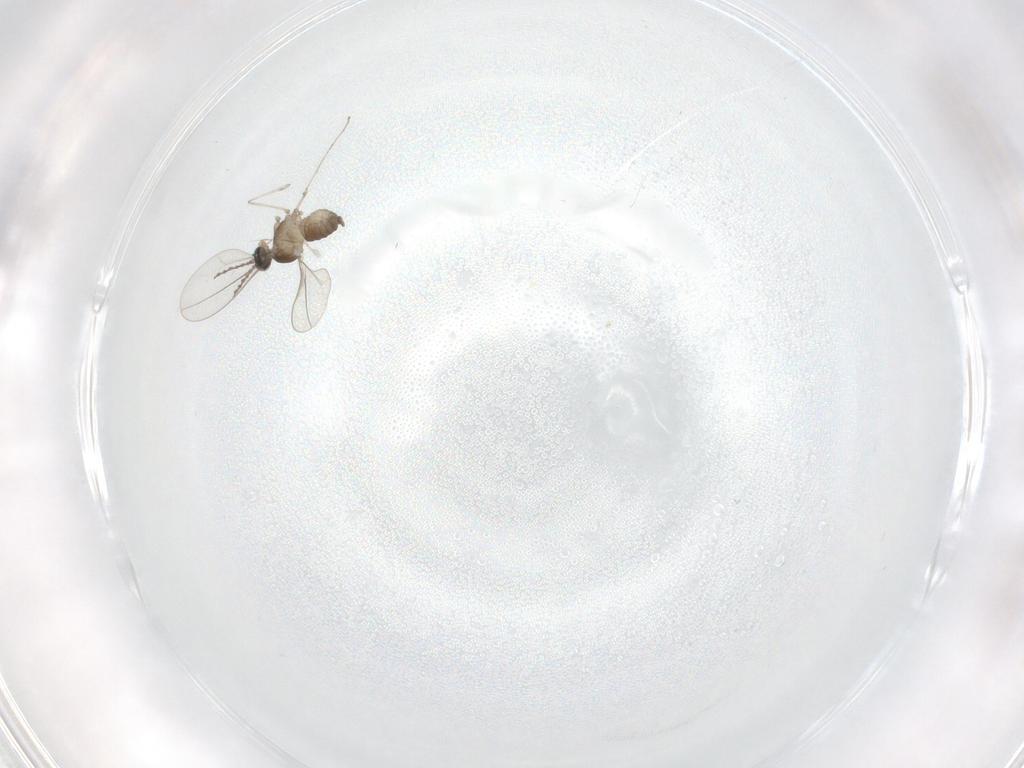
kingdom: Animalia
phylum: Arthropoda
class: Insecta
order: Diptera
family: Cecidomyiidae
